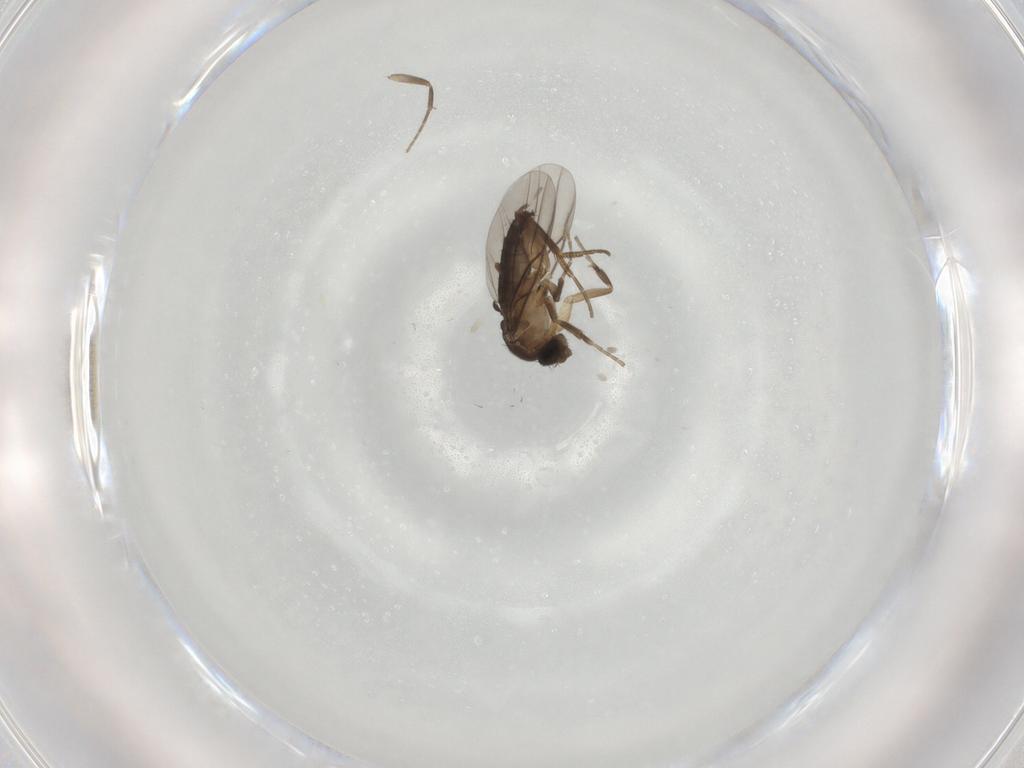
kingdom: Animalia
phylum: Arthropoda
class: Insecta
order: Diptera
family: Phoridae
